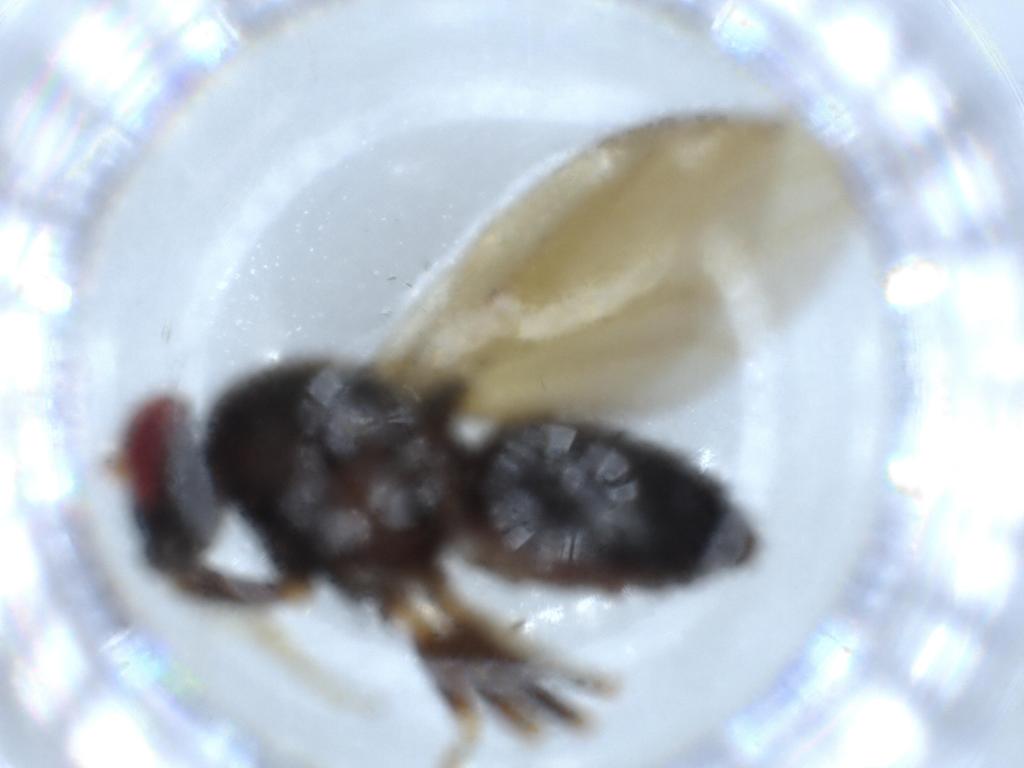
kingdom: Animalia
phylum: Arthropoda
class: Insecta
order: Diptera
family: Phoridae
